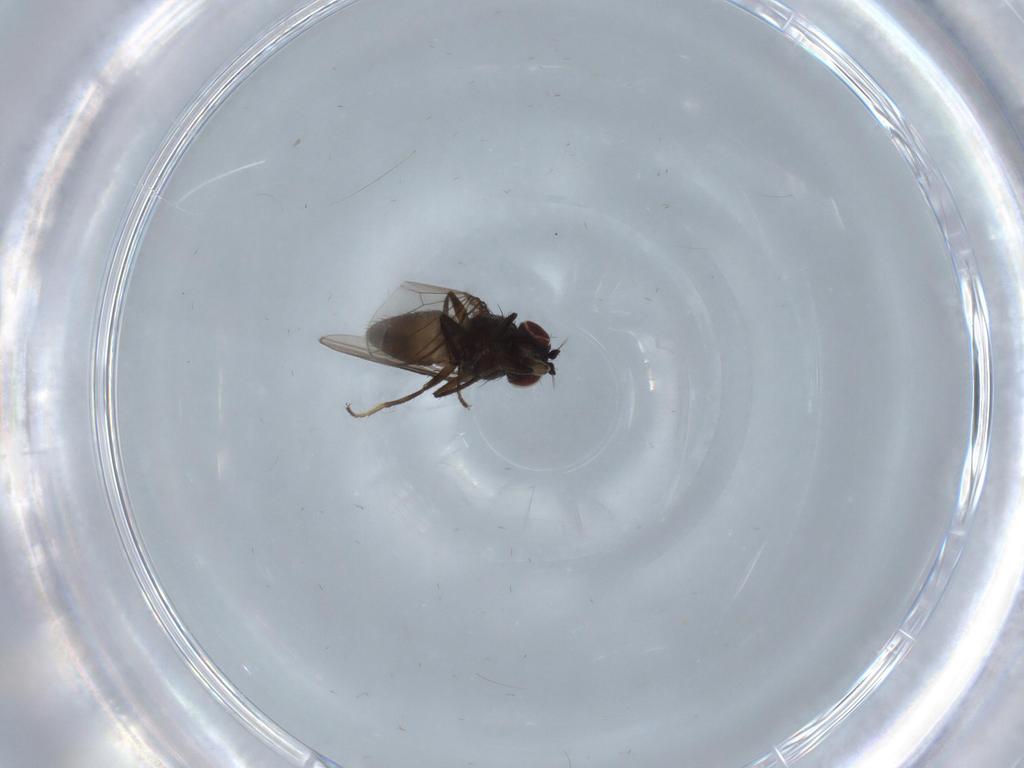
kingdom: Animalia
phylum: Arthropoda
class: Insecta
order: Diptera
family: Ephydridae
